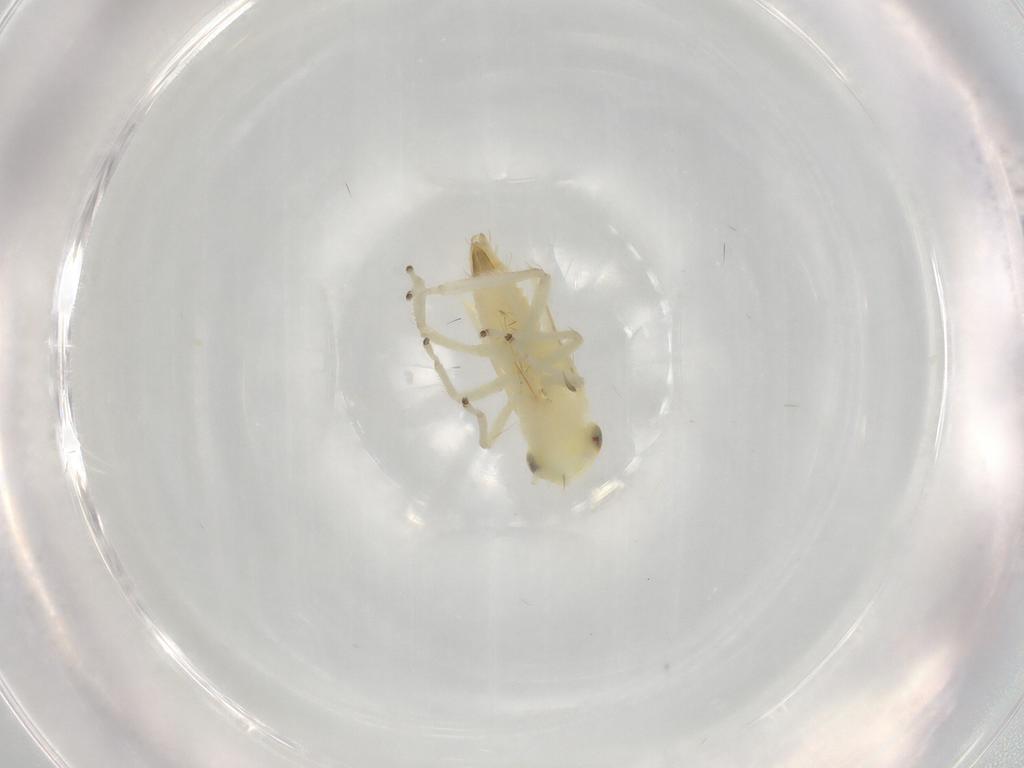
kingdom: Animalia
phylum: Arthropoda
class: Insecta
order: Hemiptera
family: Cicadellidae
